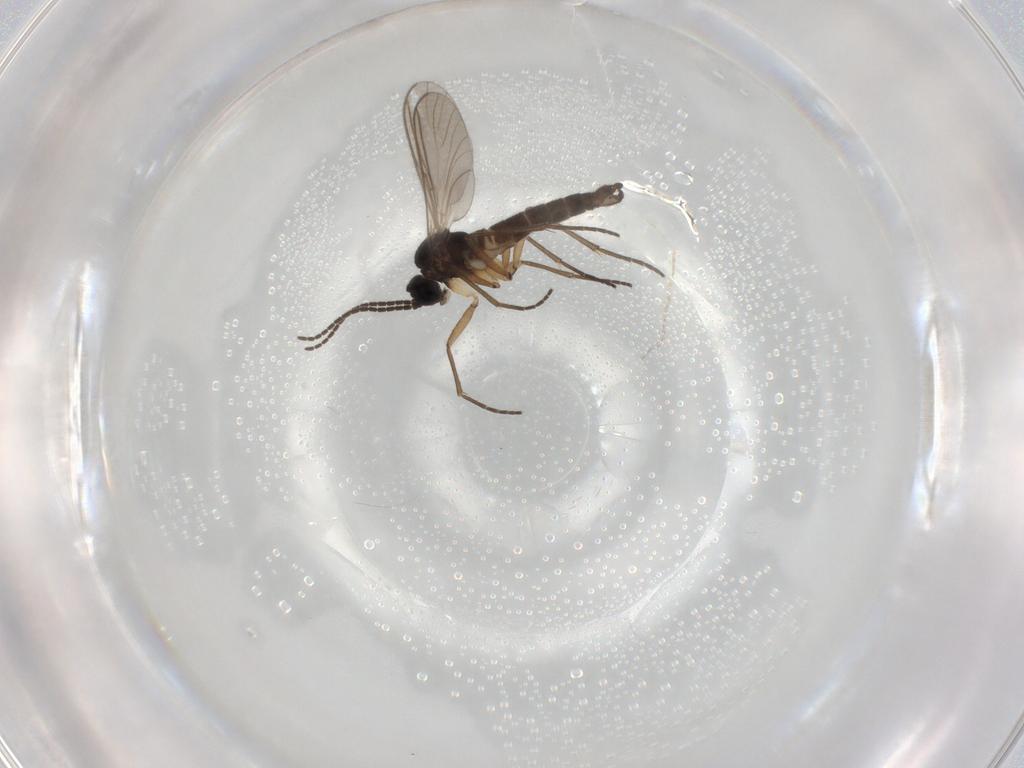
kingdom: Animalia
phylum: Arthropoda
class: Insecta
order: Diptera
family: Sciaridae
